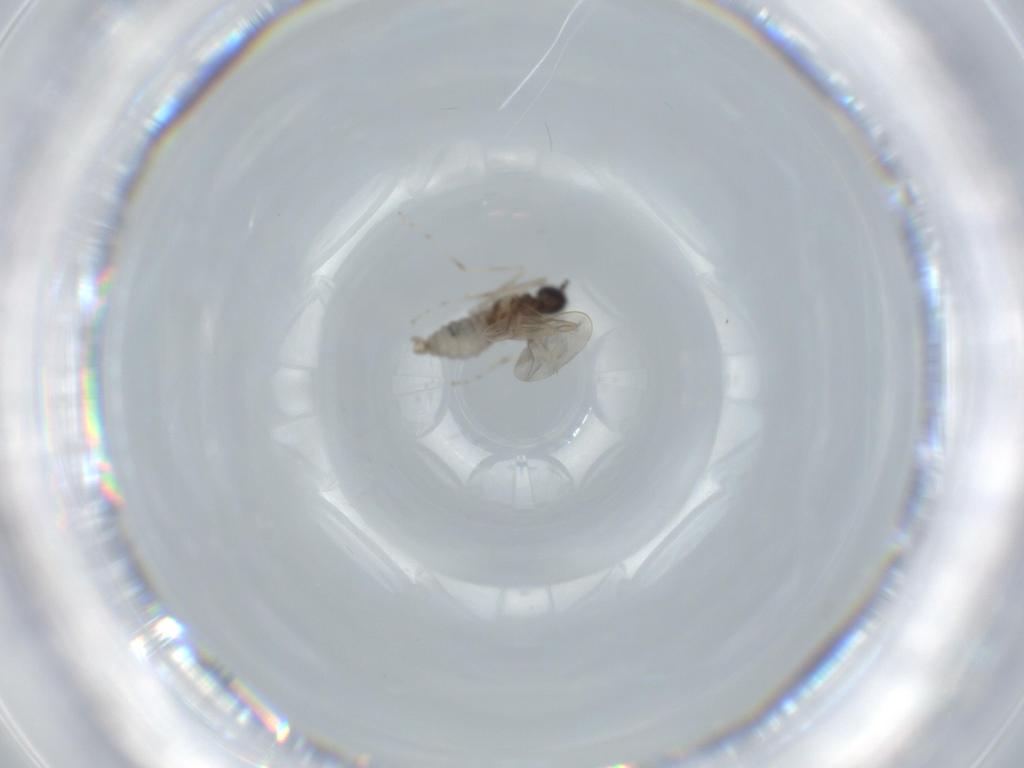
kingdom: Animalia
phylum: Arthropoda
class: Insecta
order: Diptera
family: Cecidomyiidae
